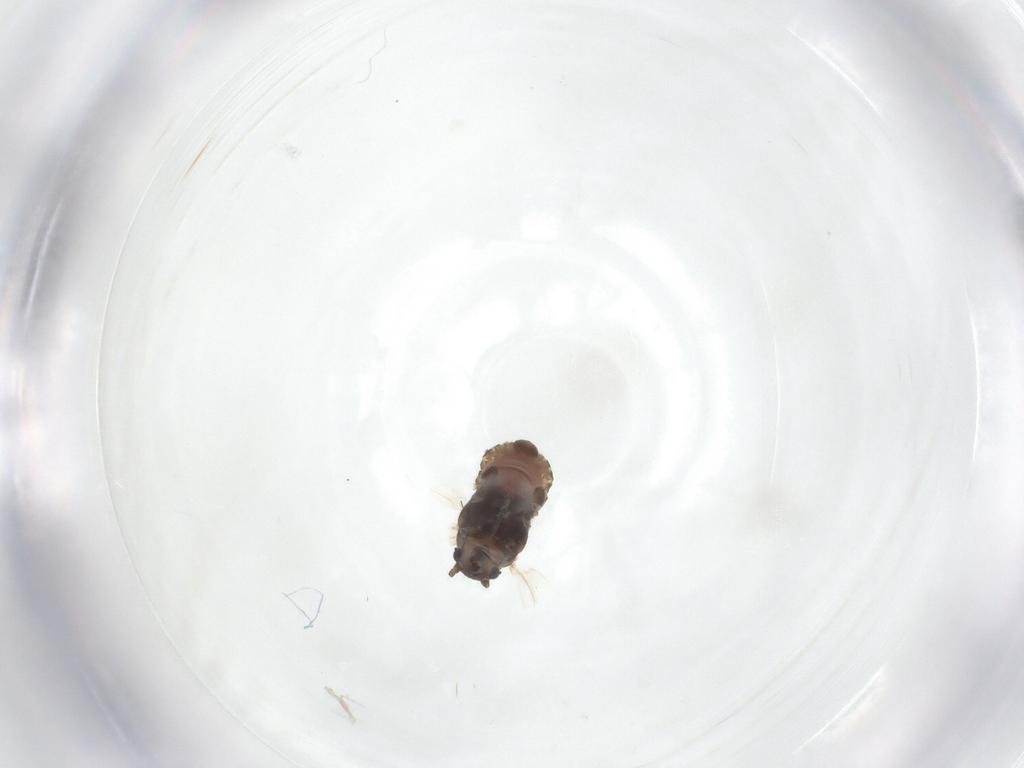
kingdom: Animalia
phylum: Arthropoda
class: Insecta
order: Hemiptera
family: Aphididae
